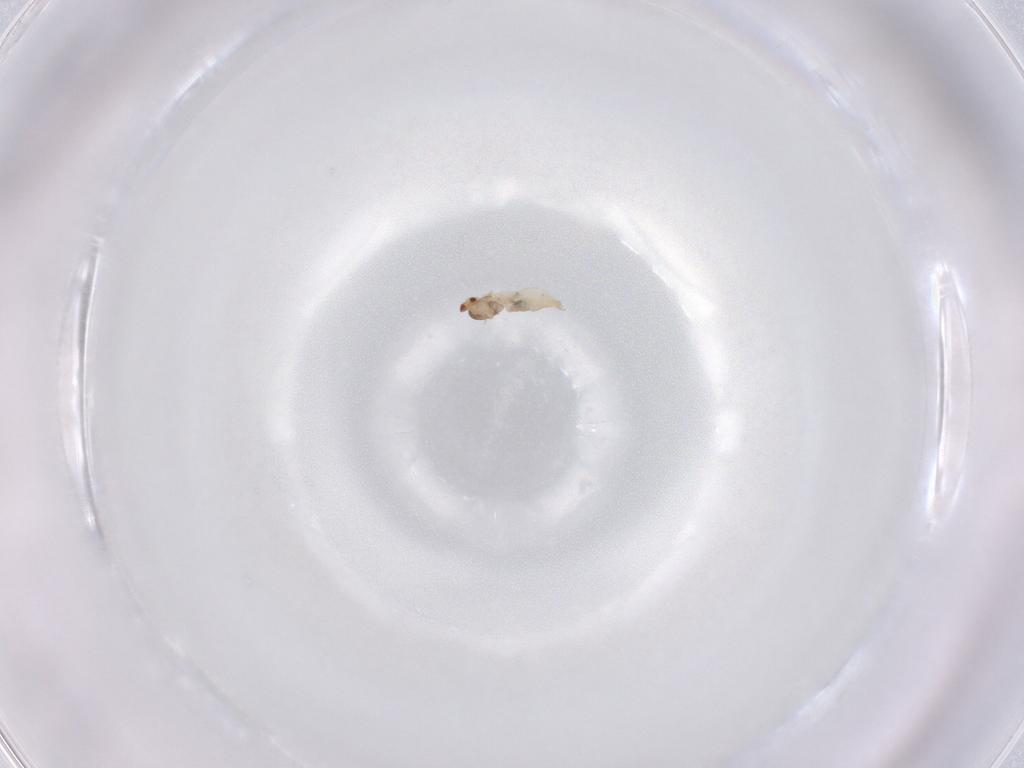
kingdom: Animalia
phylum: Arthropoda
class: Insecta
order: Diptera
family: Cecidomyiidae
